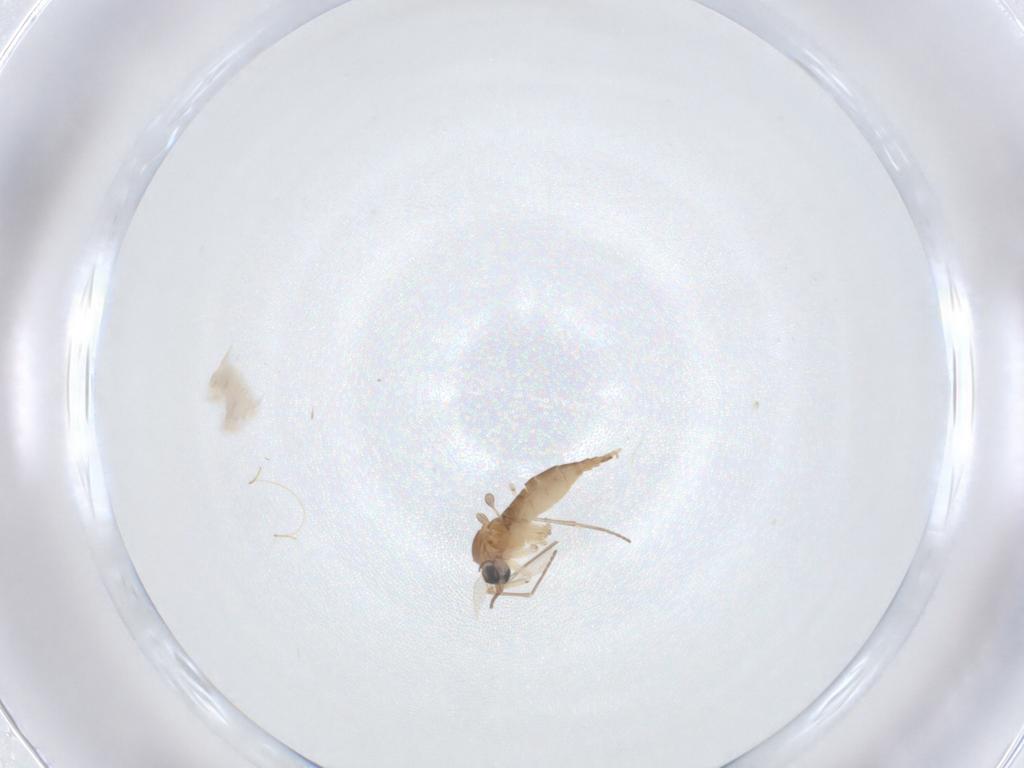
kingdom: Animalia
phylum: Arthropoda
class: Insecta
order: Diptera
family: Sciaridae
